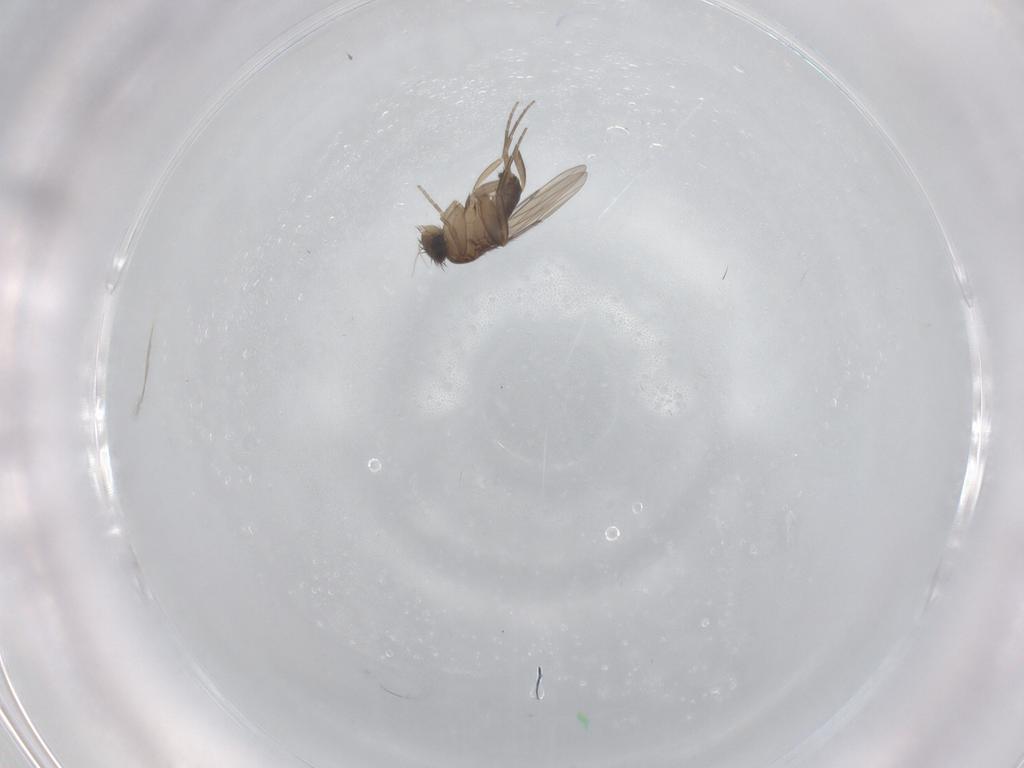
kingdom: Animalia
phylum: Arthropoda
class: Insecta
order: Diptera
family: Phoridae
